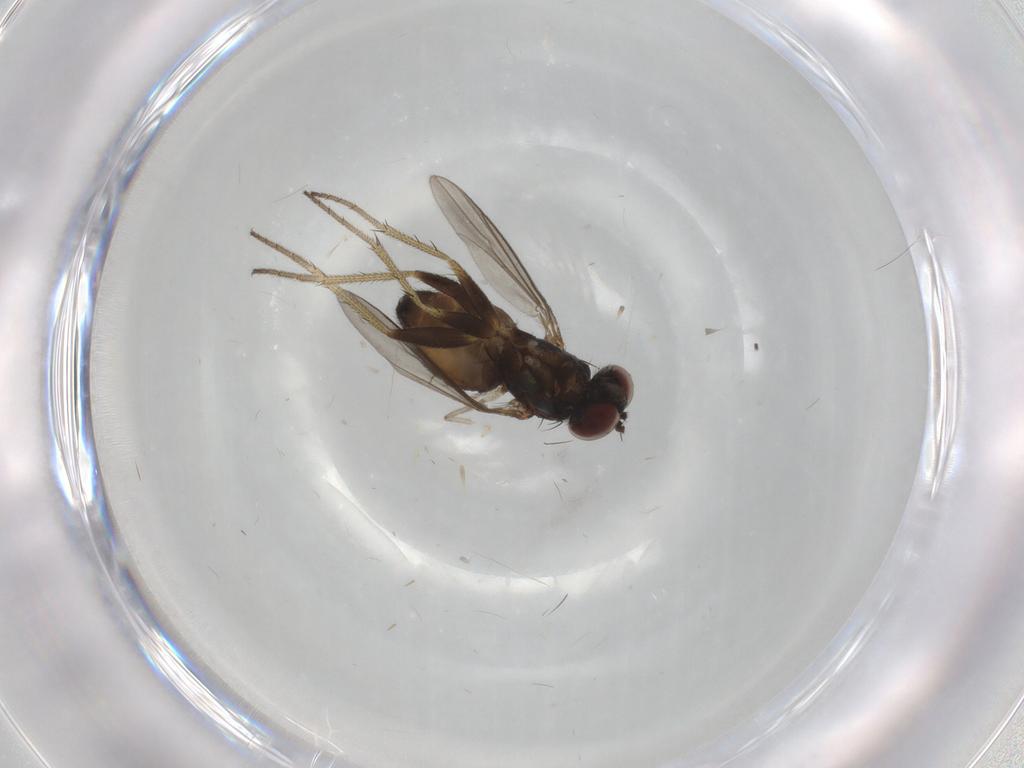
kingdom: Animalia
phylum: Arthropoda
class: Insecta
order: Diptera
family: Dolichopodidae
